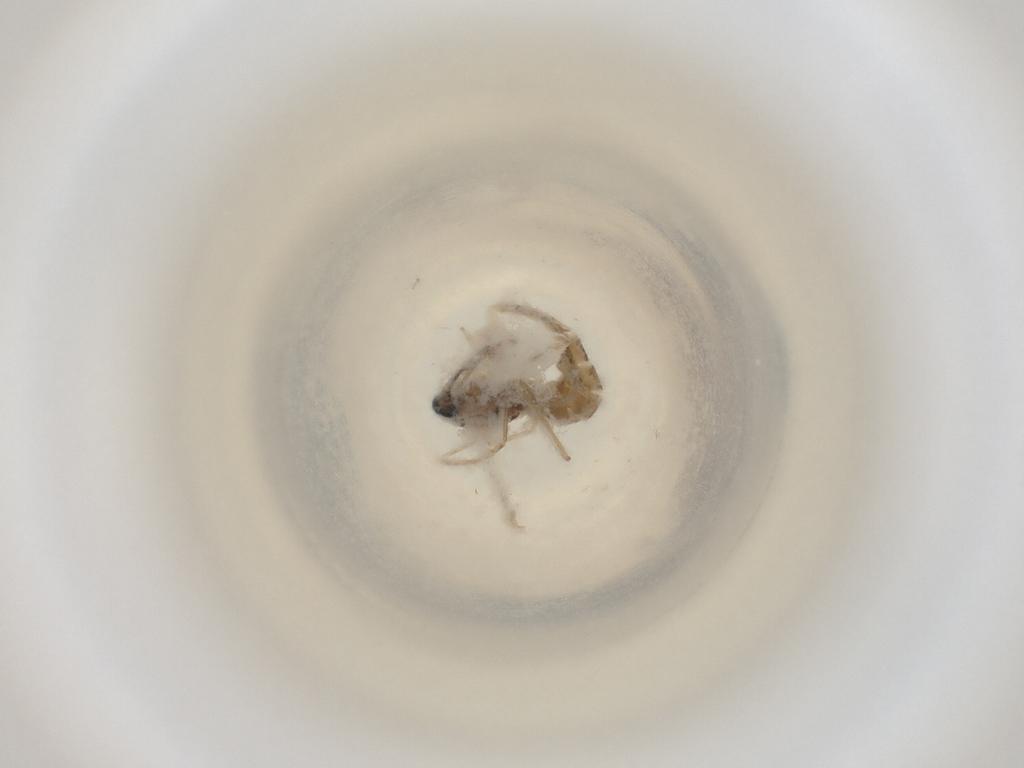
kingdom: Animalia
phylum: Arthropoda
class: Insecta
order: Diptera
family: Cecidomyiidae
